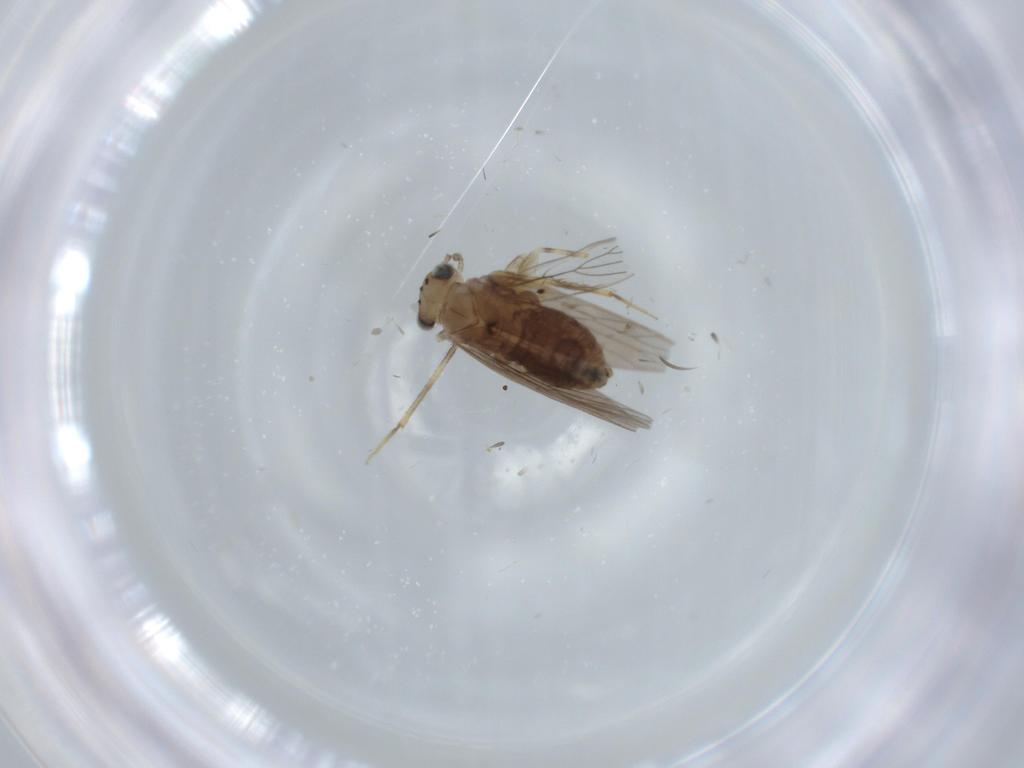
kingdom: Animalia
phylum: Arthropoda
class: Insecta
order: Psocodea
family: Lepidopsocidae
